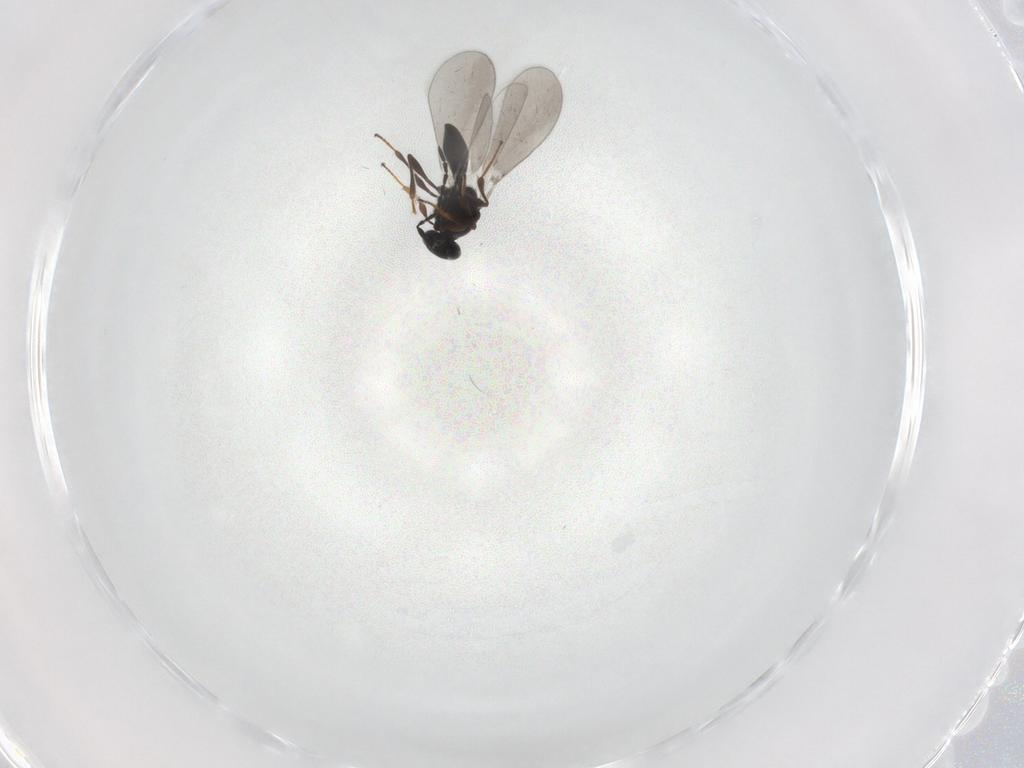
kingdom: Animalia
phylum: Arthropoda
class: Insecta
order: Hymenoptera
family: Platygastridae
